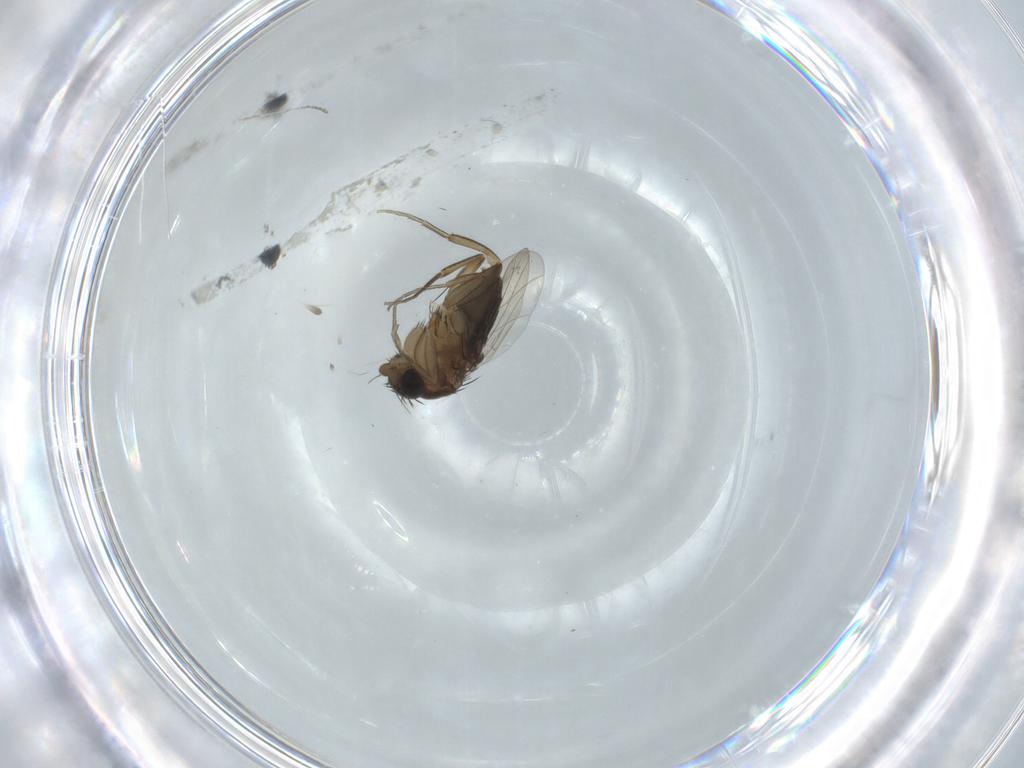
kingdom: Animalia
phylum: Arthropoda
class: Insecta
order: Diptera
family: Phoridae
